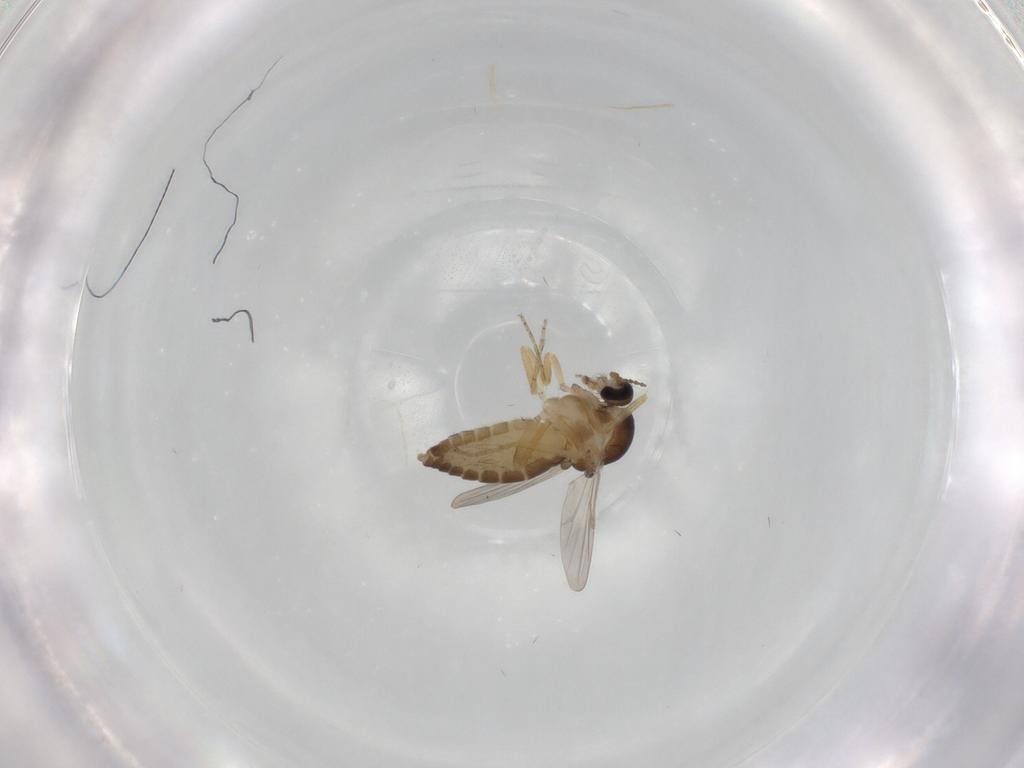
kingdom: Animalia
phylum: Arthropoda
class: Insecta
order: Diptera
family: Ceratopogonidae
